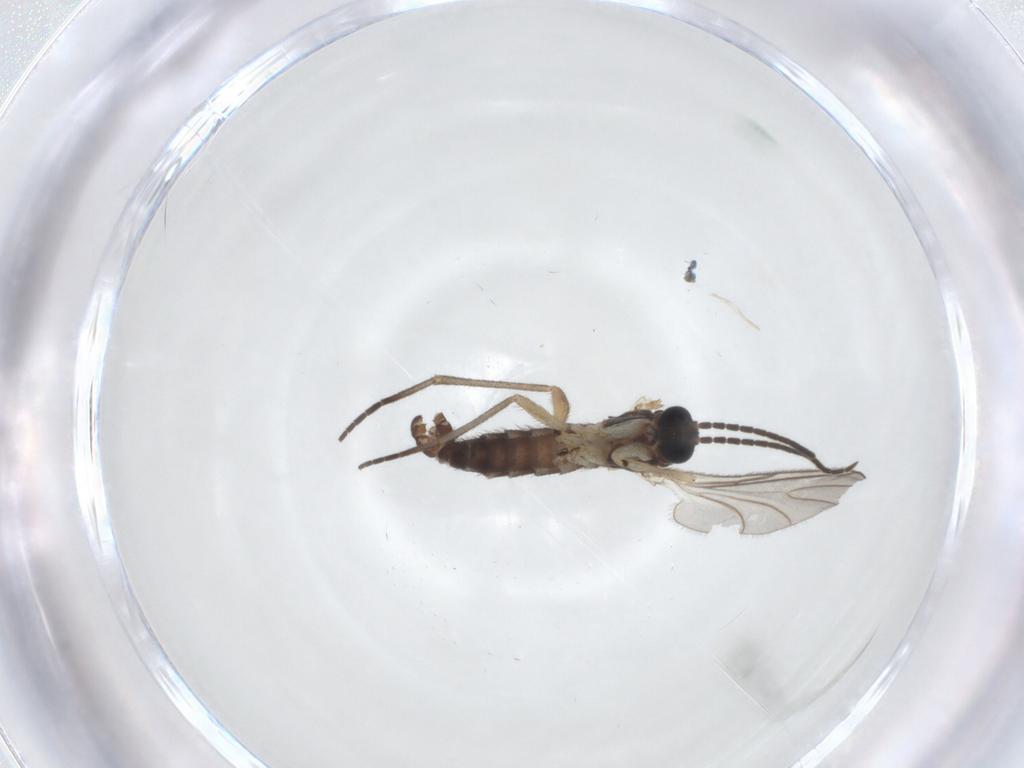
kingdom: Animalia
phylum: Arthropoda
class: Insecta
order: Diptera
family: Sciaridae
